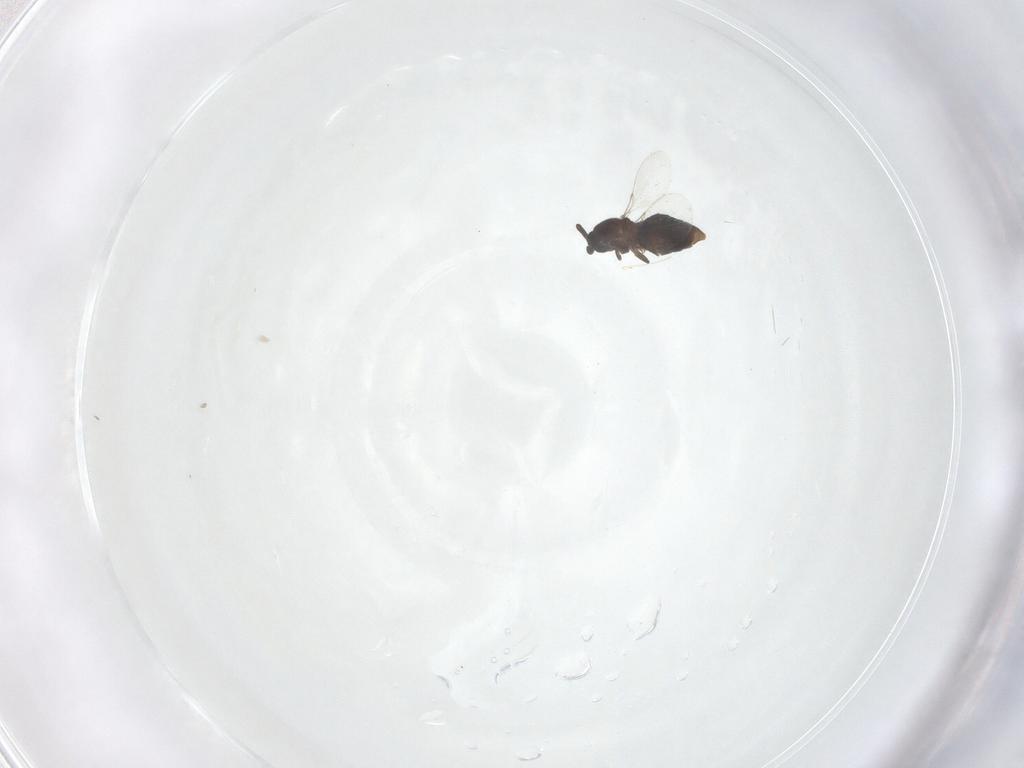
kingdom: Animalia
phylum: Arthropoda
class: Insecta
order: Diptera
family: Scatopsidae
